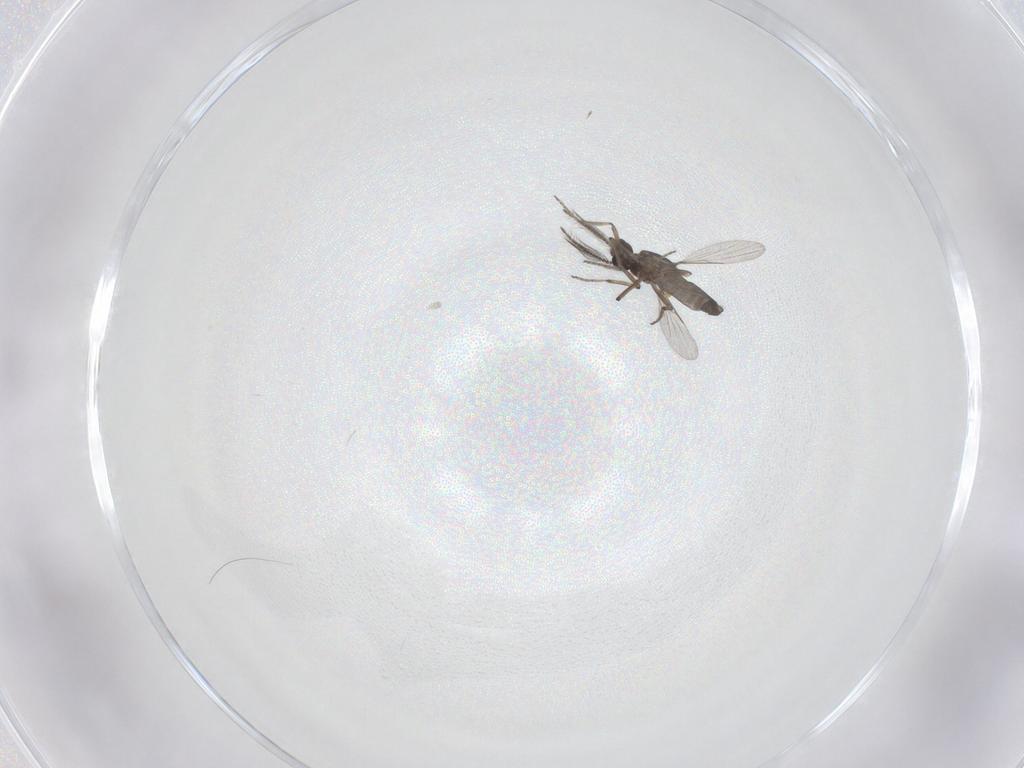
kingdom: Animalia
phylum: Arthropoda
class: Insecta
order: Diptera
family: Ceratopogonidae
